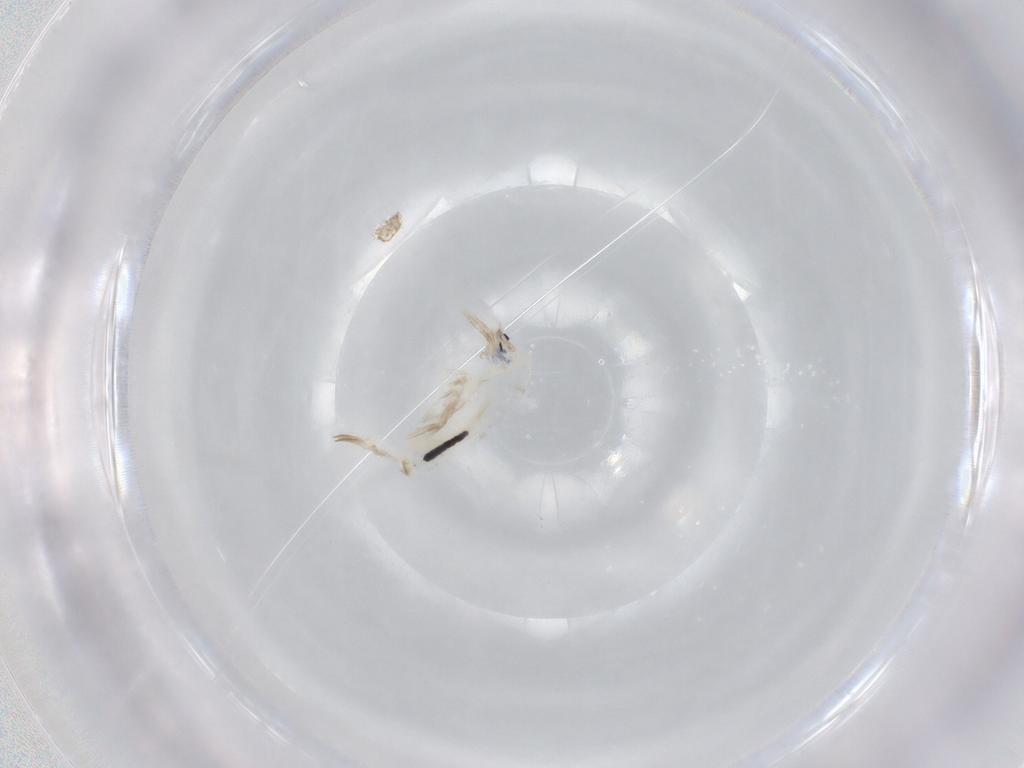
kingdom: Animalia
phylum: Arthropoda
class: Collembola
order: Entomobryomorpha
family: Entomobryidae
